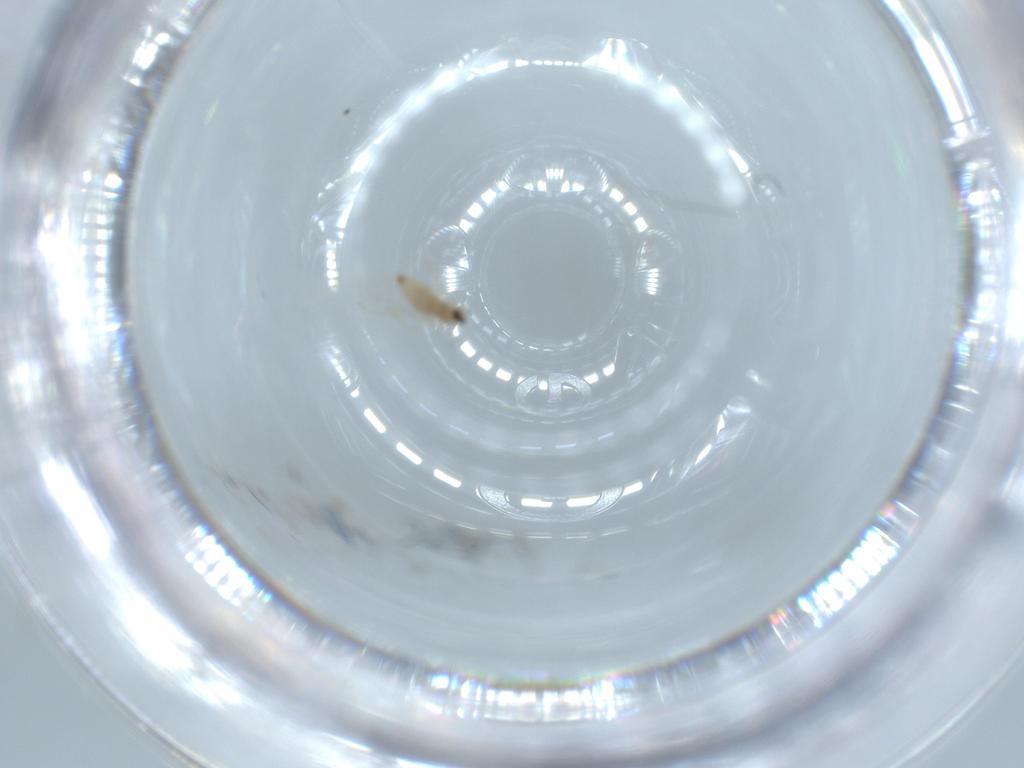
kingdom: Animalia
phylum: Arthropoda
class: Insecta
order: Diptera
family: Cecidomyiidae
